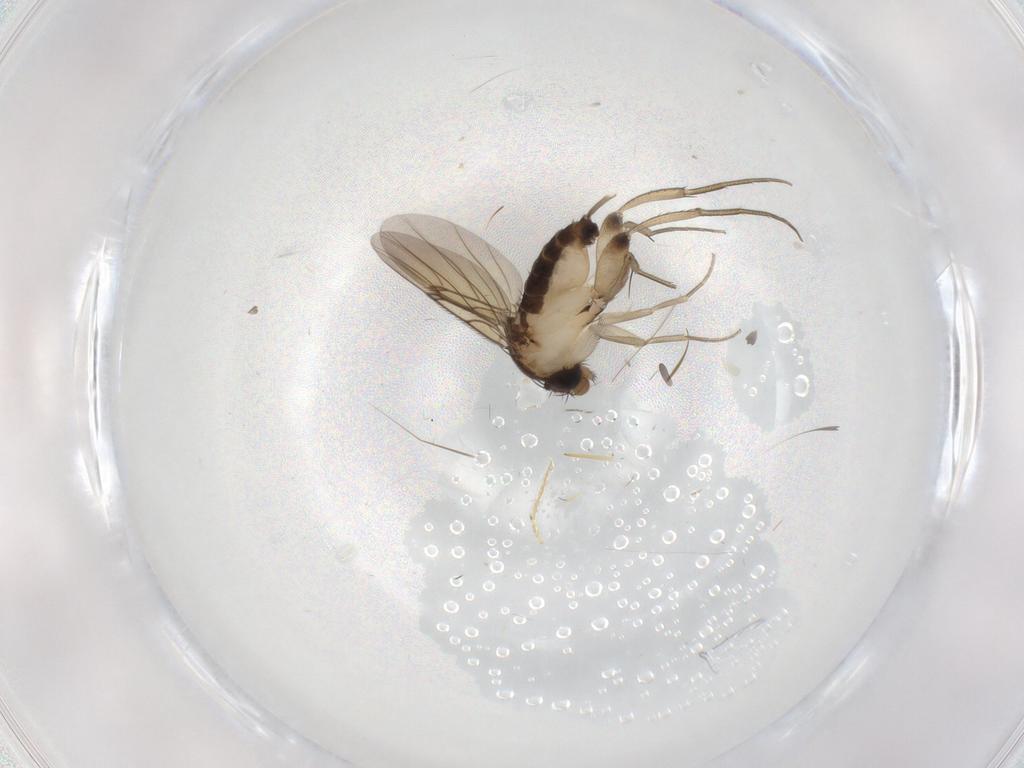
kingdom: Animalia
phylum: Arthropoda
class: Insecta
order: Diptera
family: Phoridae
